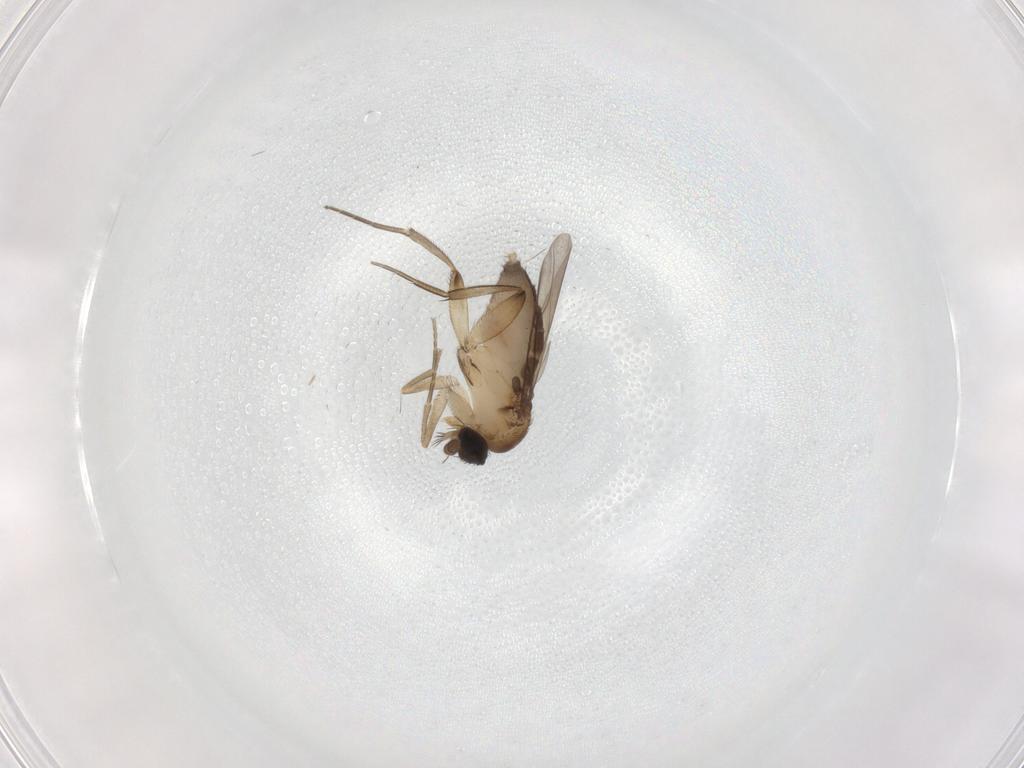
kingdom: Animalia
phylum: Arthropoda
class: Insecta
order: Diptera
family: Phoridae
